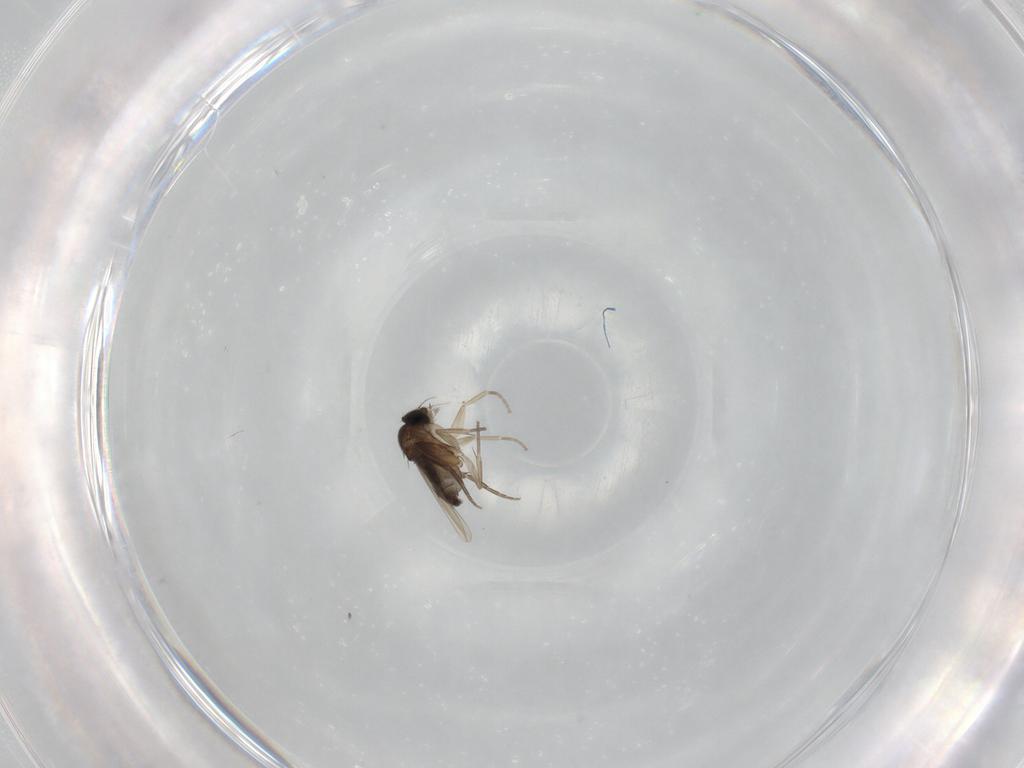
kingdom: Animalia
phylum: Arthropoda
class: Insecta
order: Diptera
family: Phoridae
